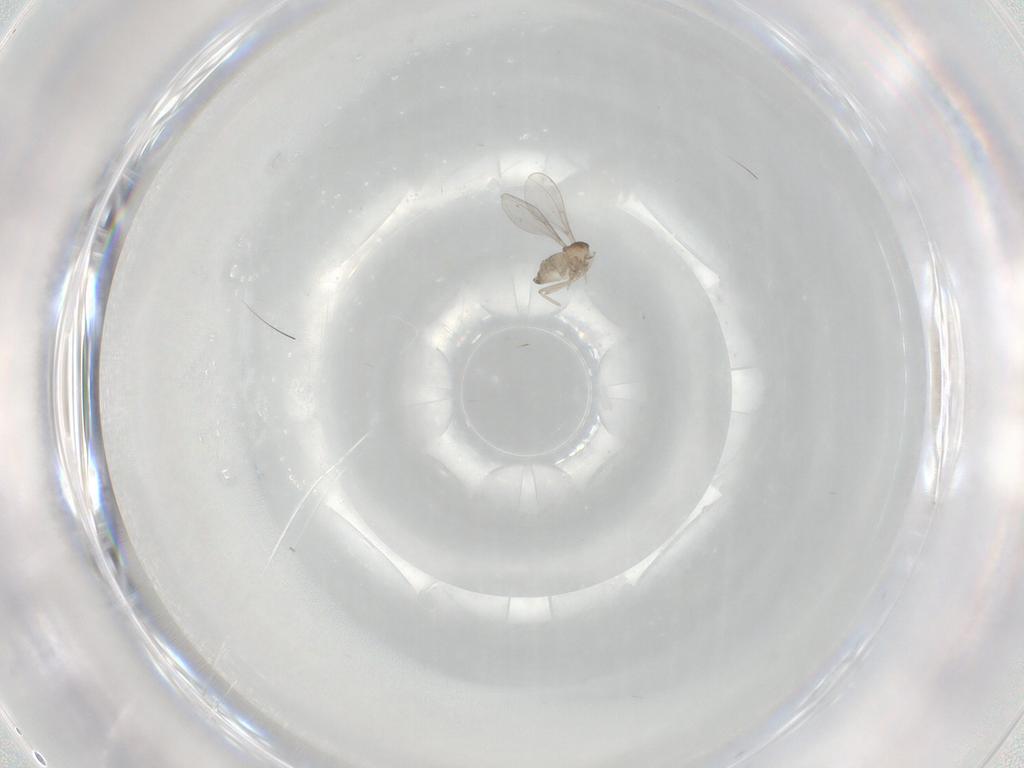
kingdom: Animalia
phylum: Arthropoda
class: Insecta
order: Diptera
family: Cecidomyiidae
